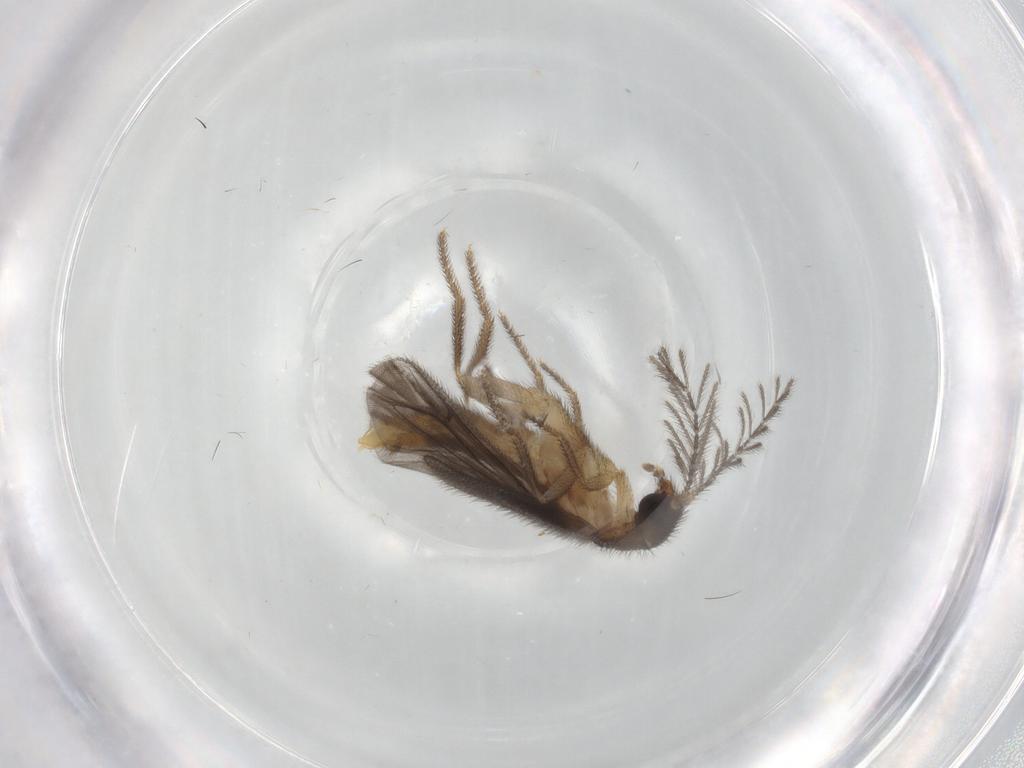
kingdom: Animalia
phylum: Arthropoda
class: Insecta
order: Coleoptera
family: Phengodidae
